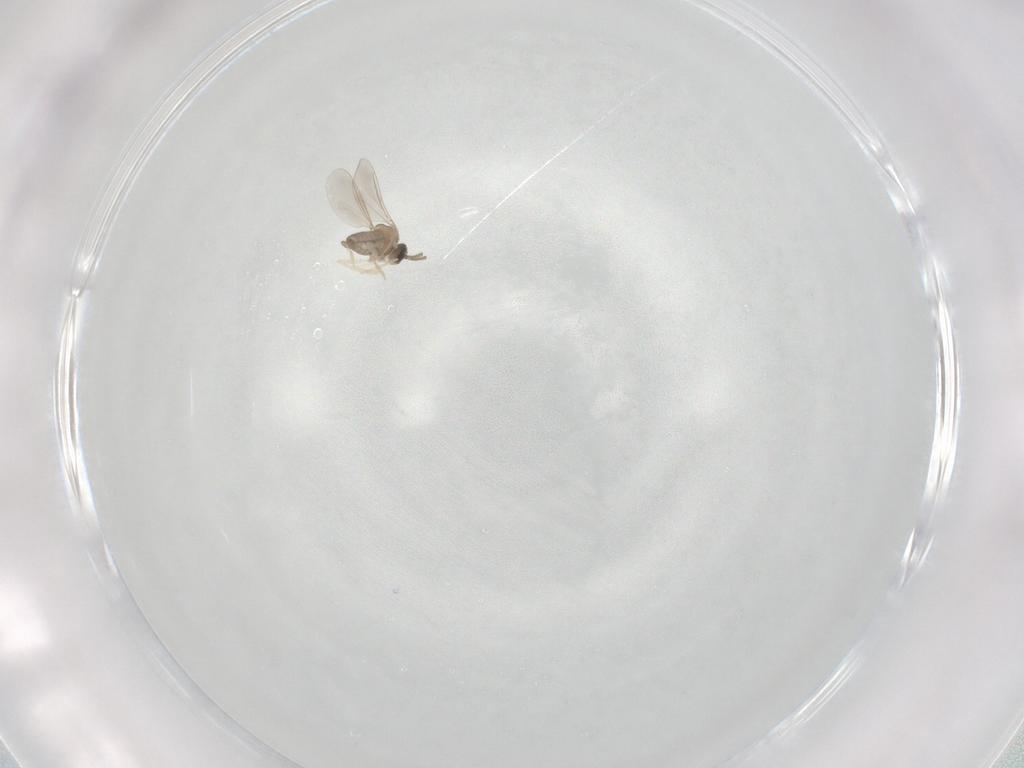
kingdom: Animalia
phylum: Arthropoda
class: Insecta
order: Diptera
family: Cecidomyiidae
